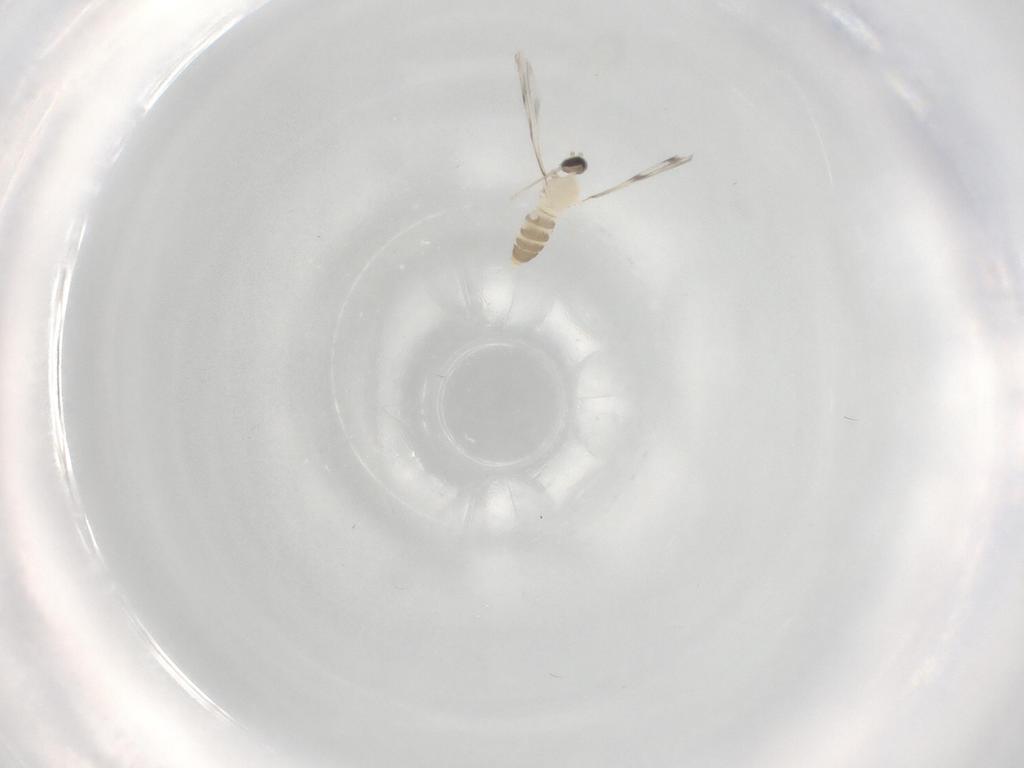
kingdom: Animalia
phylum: Arthropoda
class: Insecta
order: Diptera
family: Cecidomyiidae
